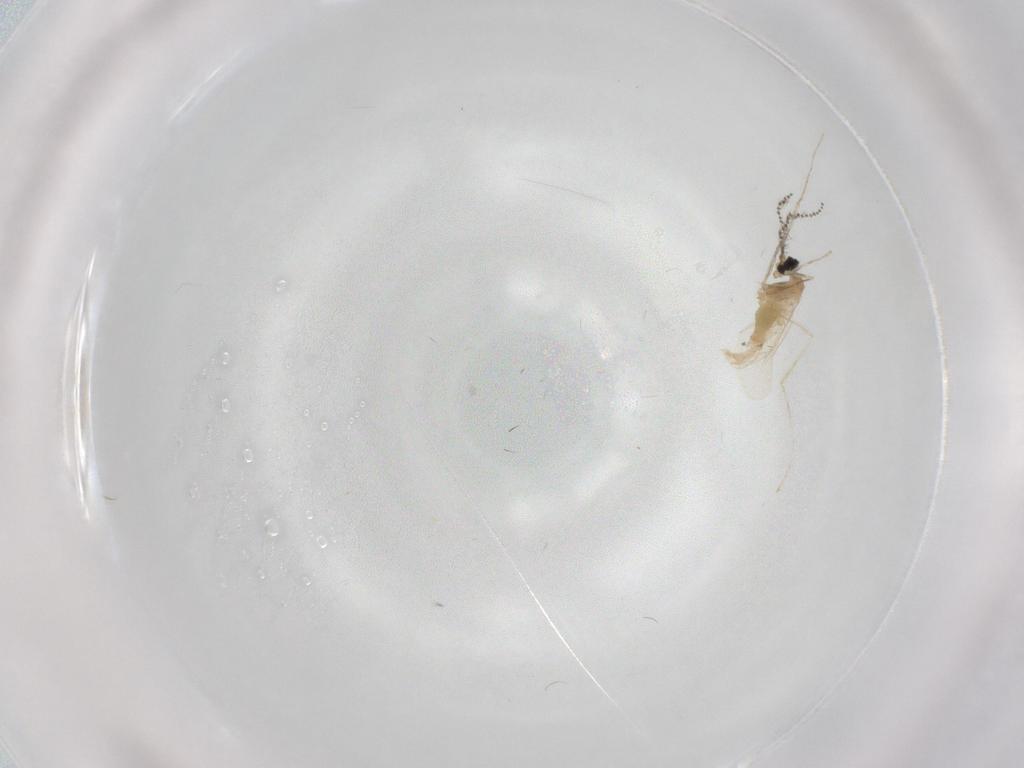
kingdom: Animalia
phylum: Arthropoda
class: Insecta
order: Diptera
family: Cecidomyiidae
